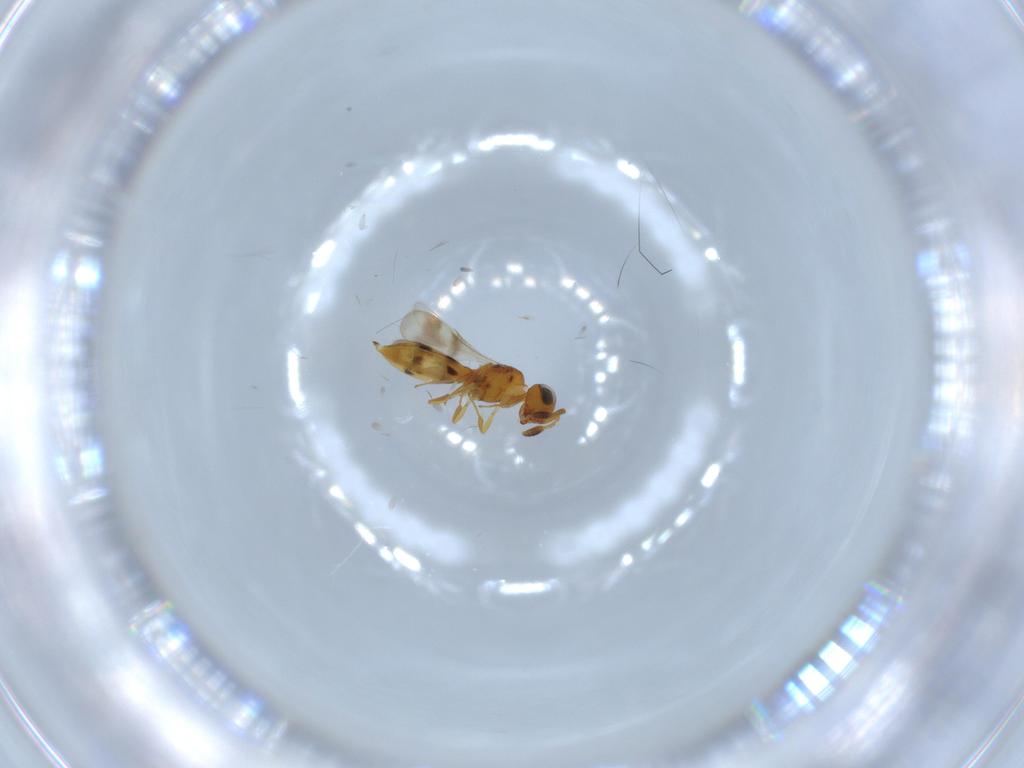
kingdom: Animalia
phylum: Arthropoda
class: Insecta
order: Hymenoptera
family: Scelionidae
